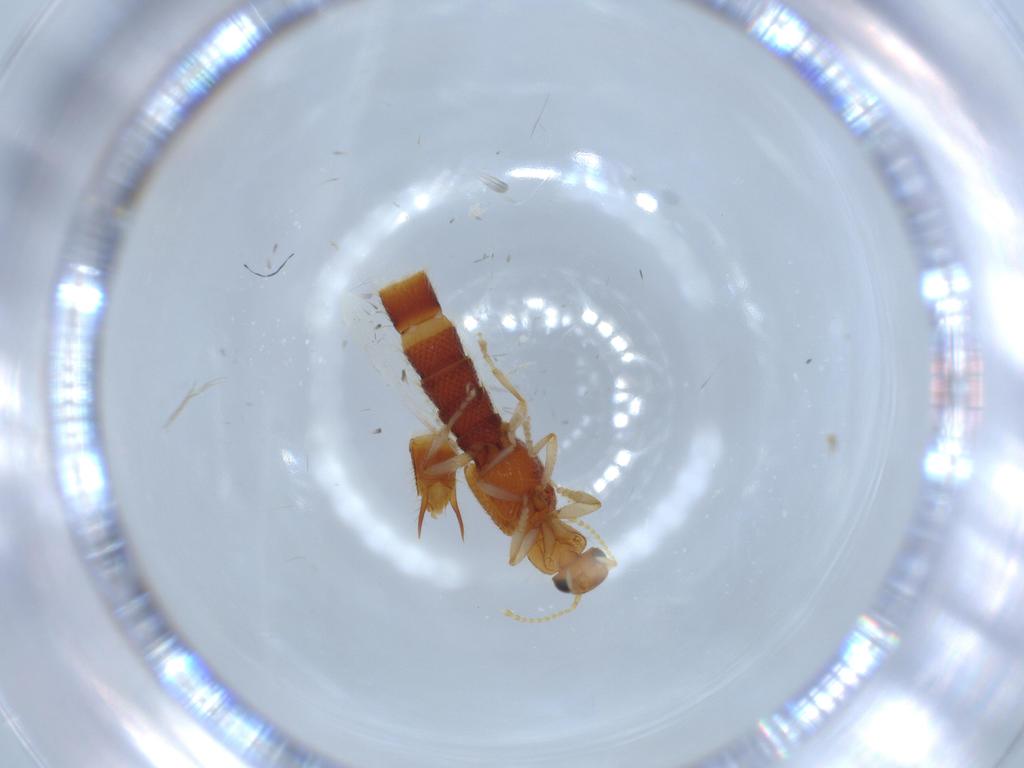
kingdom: Animalia
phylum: Arthropoda
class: Insecta
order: Coleoptera
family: Staphylinidae
